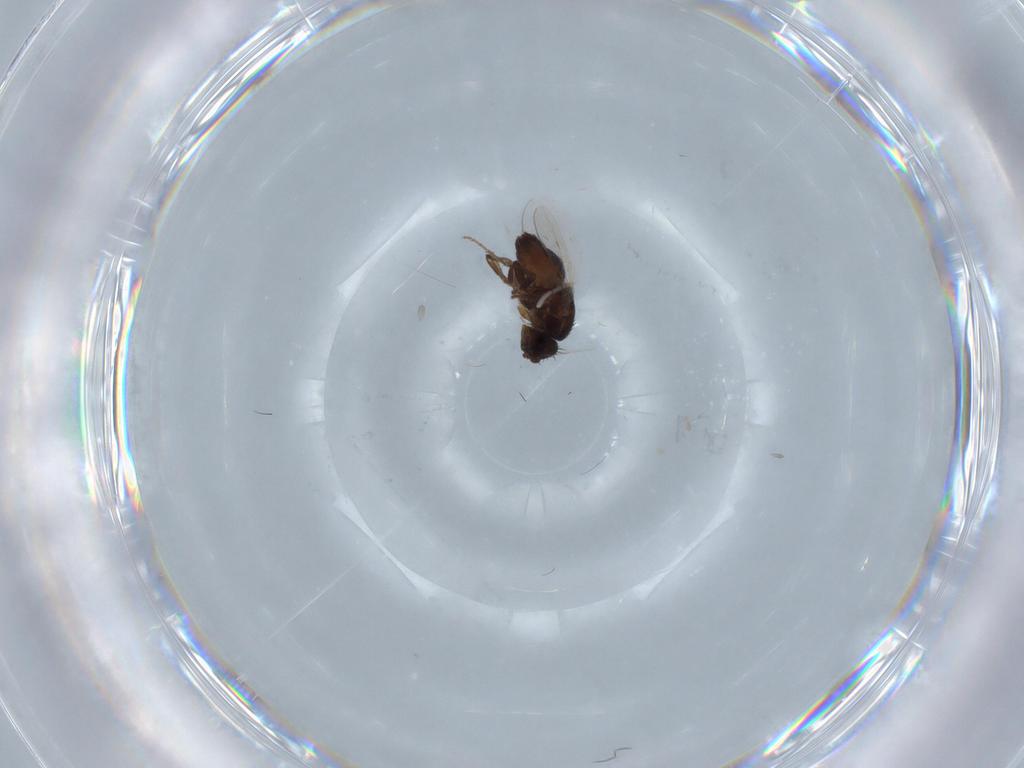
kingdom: Animalia
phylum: Arthropoda
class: Insecta
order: Diptera
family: Sphaeroceridae
